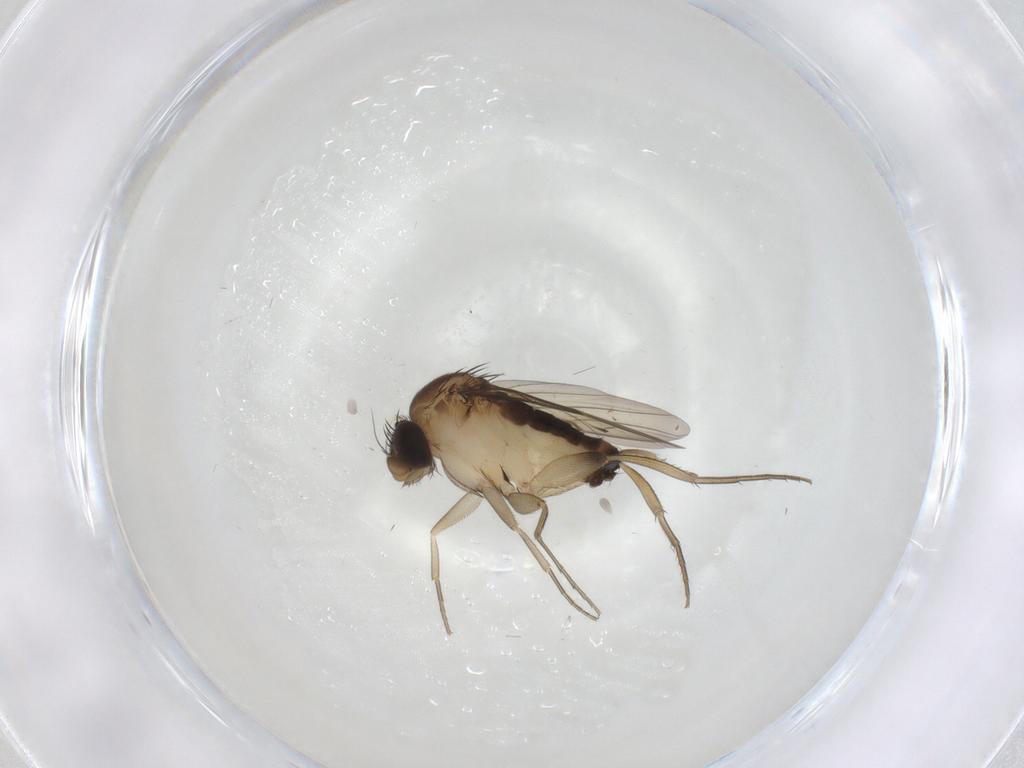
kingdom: Animalia
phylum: Arthropoda
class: Insecta
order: Diptera
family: Phoridae
